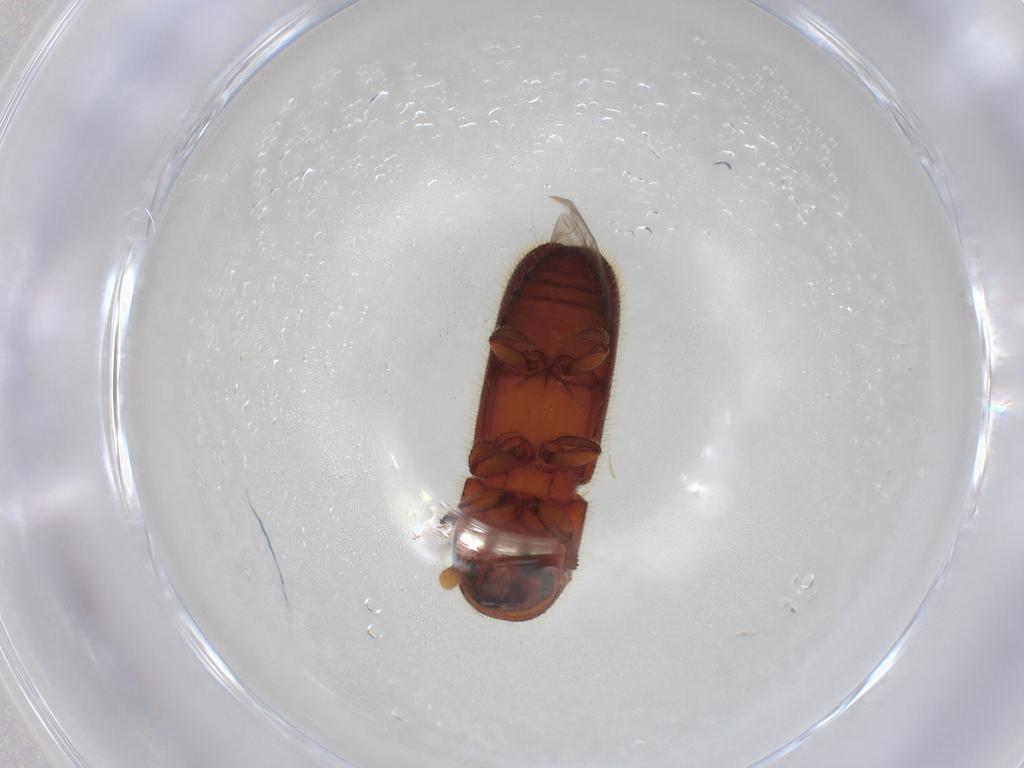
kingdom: Animalia
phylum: Arthropoda
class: Insecta
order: Coleoptera
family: Curculionidae
